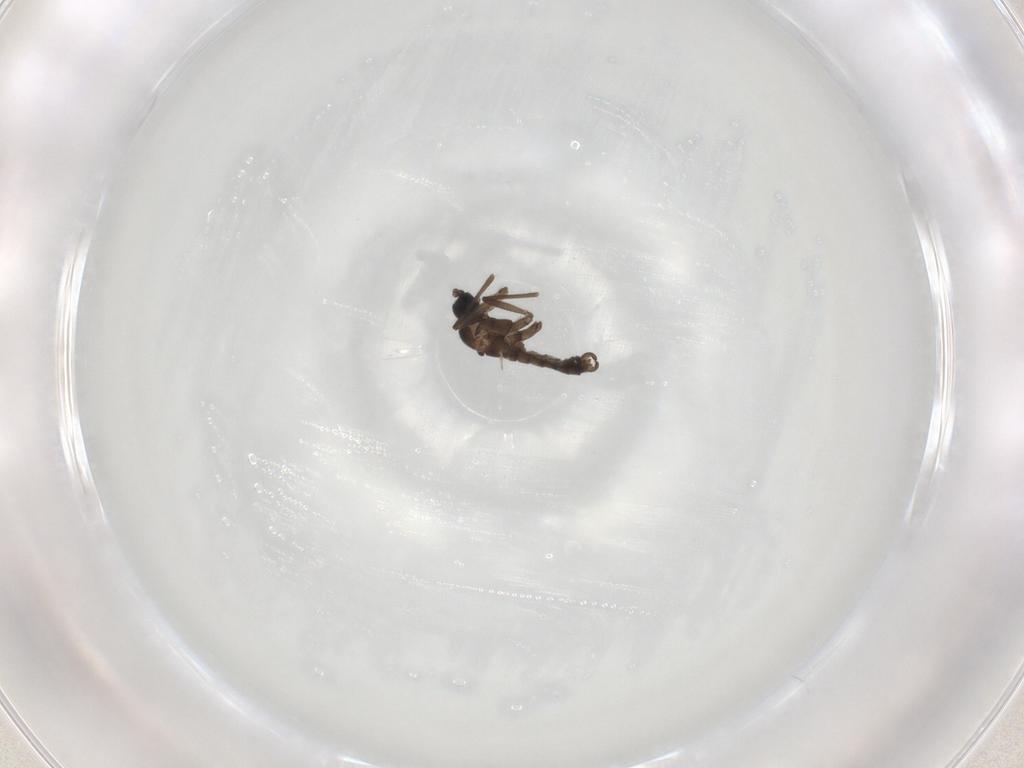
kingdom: Animalia
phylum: Arthropoda
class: Insecta
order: Diptera
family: Sciaridae
